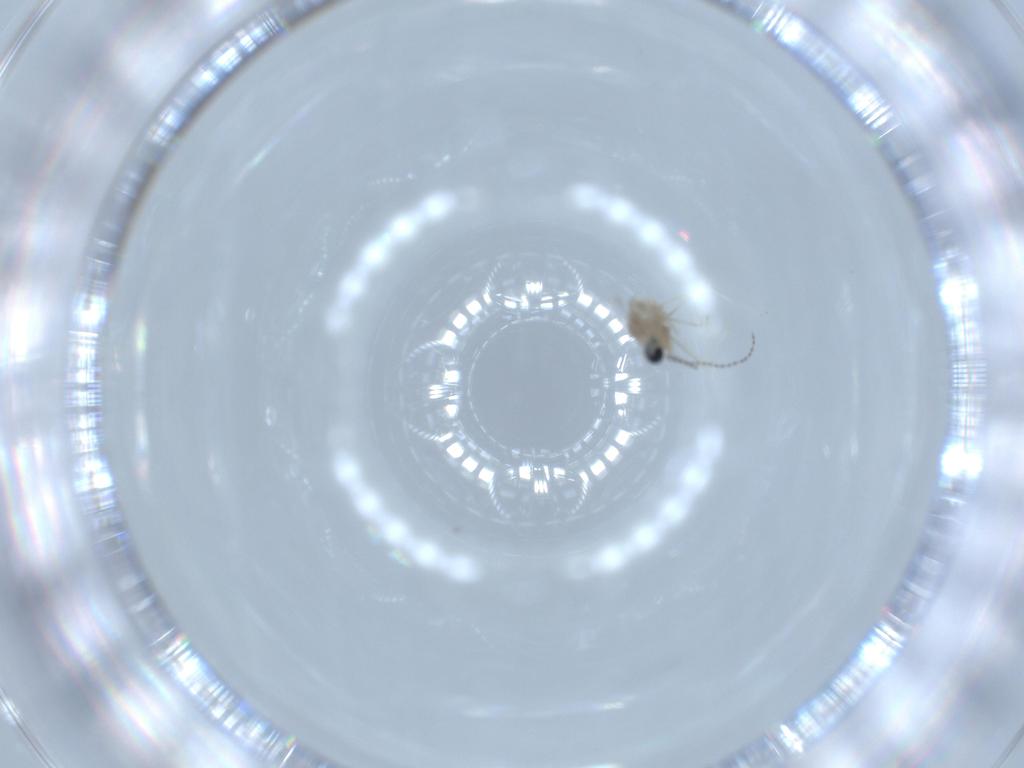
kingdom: Animalia
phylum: Arthropoda
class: Insecta
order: Diptera
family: Cecidomyiidae
